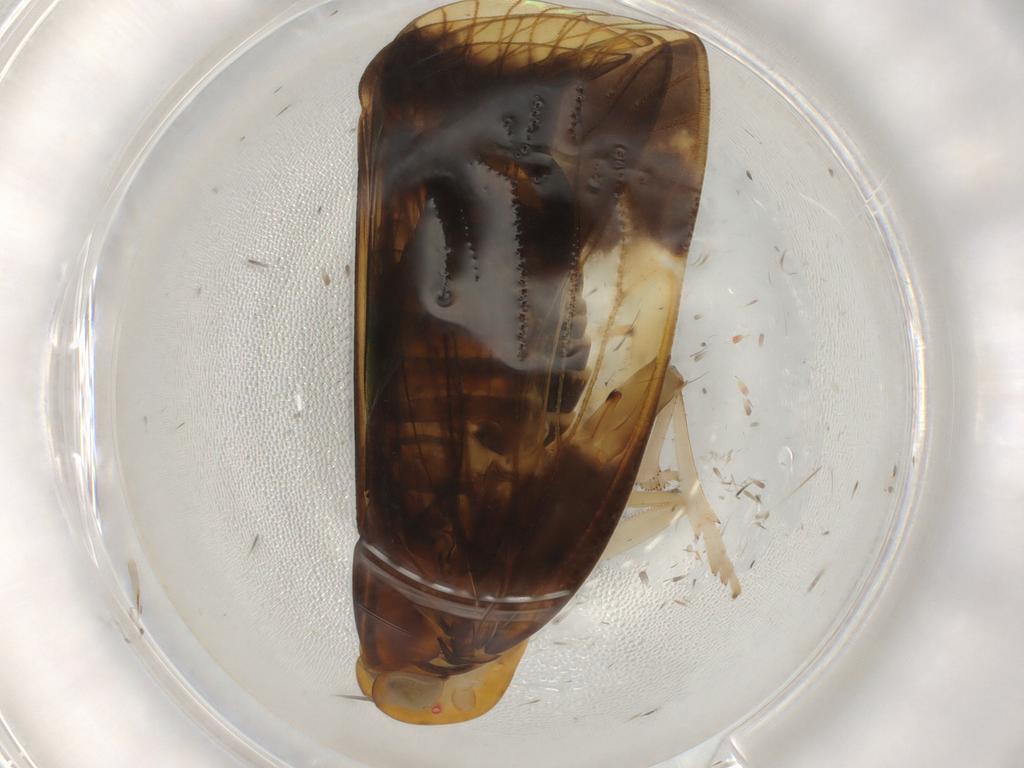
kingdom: Animalia
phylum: Arthropoda
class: Insecta
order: Hemiptera
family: Cixiidae
